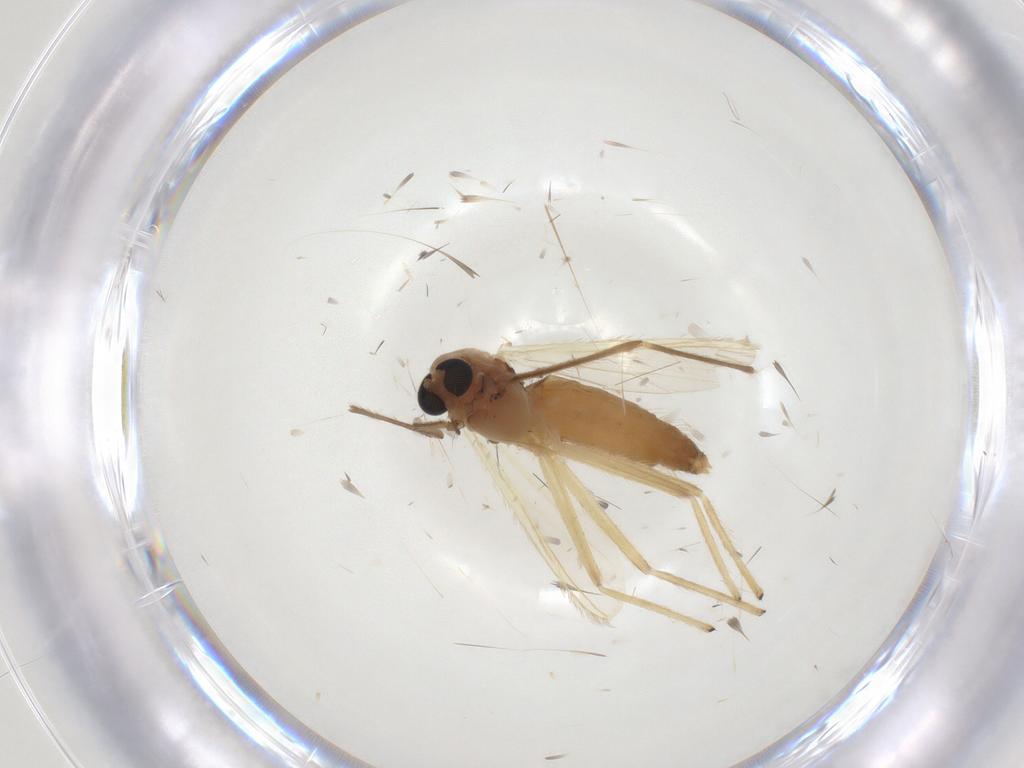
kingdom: Animalia
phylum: Arthropoda
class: Insecta
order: Diptera
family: Chironomidae
